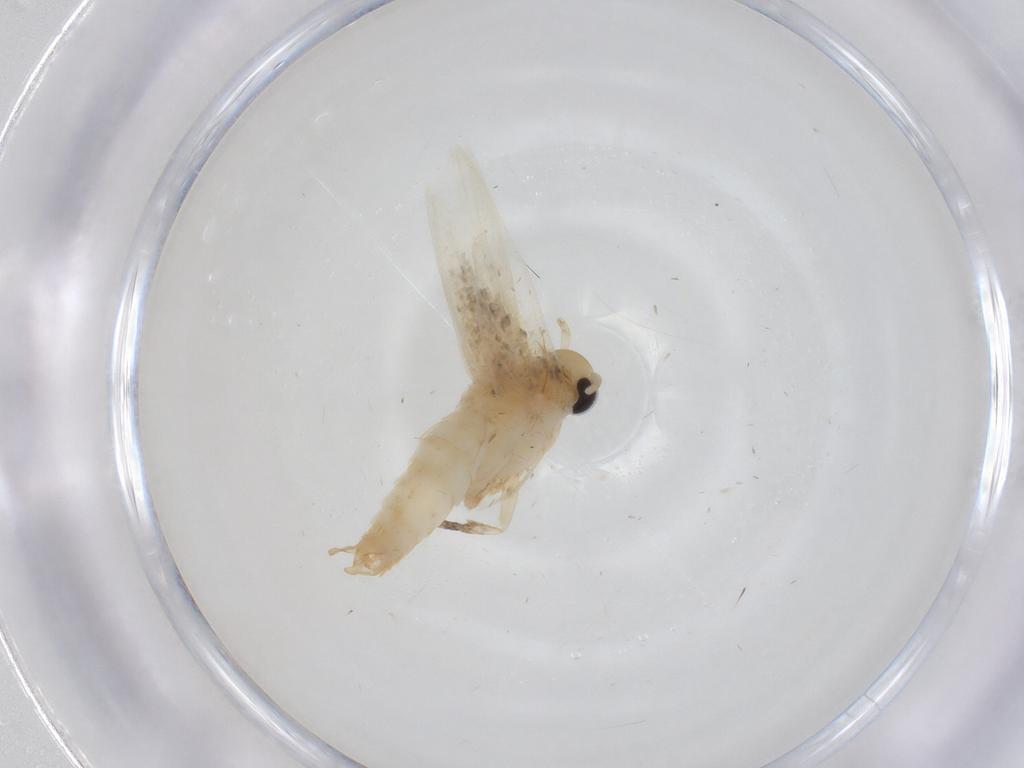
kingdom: Animalia
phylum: Arthropoda
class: Insecta
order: Lepidoptera
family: Erebidae
